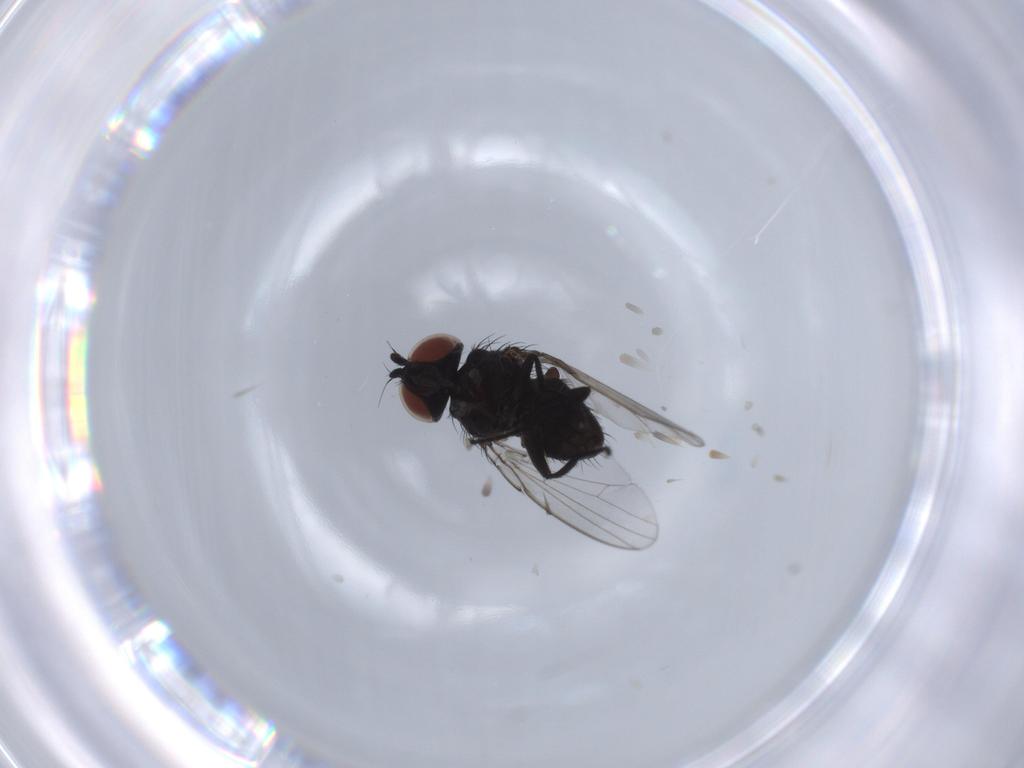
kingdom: Animalia
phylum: Arthropoda
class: Insecta
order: Diptera
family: Phoridae
